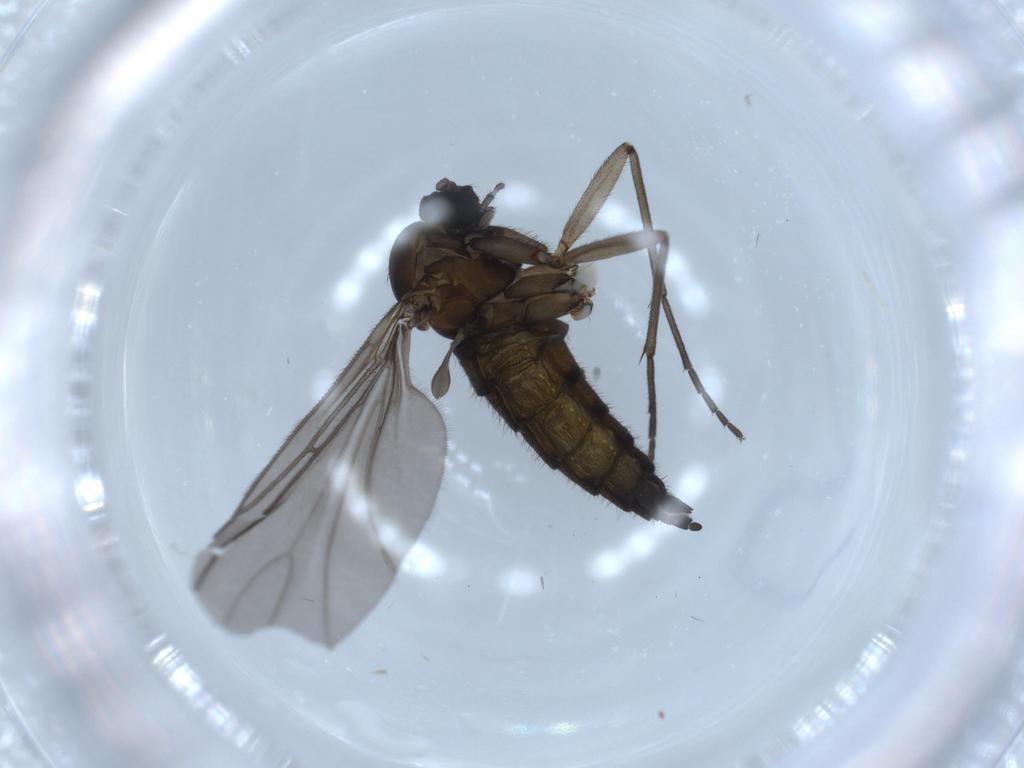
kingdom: Animalia
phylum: Arthropoda
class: Insecta
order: Diptera
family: Sciaridae
